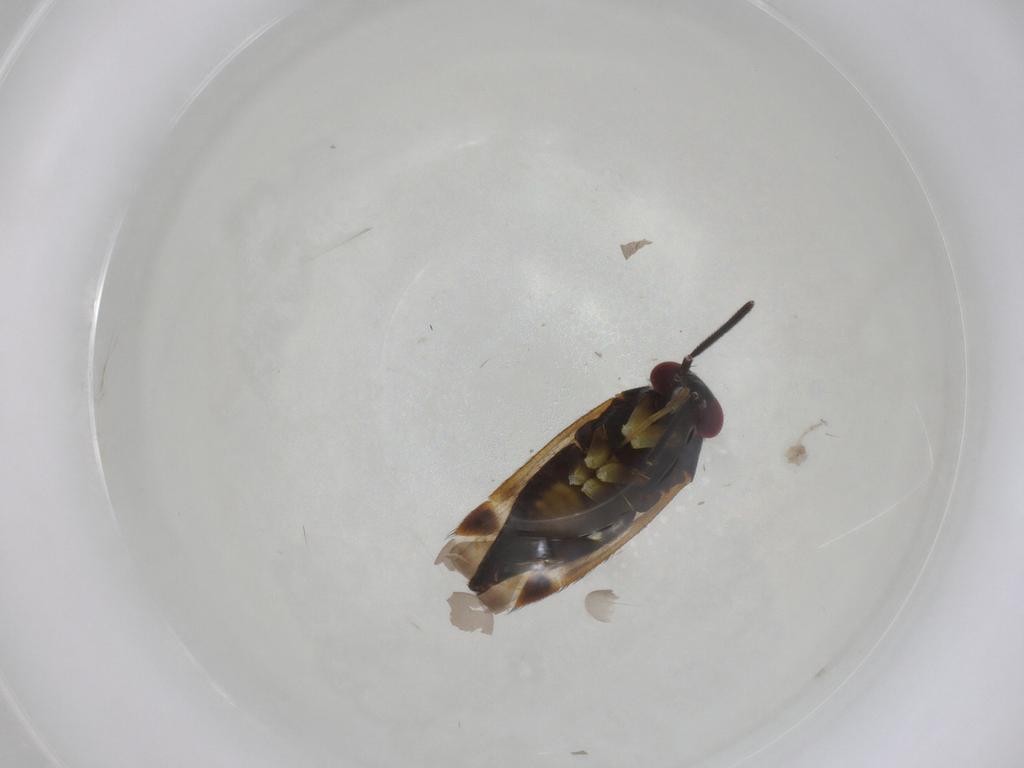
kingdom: Animalia
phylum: Arthropoda
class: Insecta
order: Hemiptera
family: Miridae
